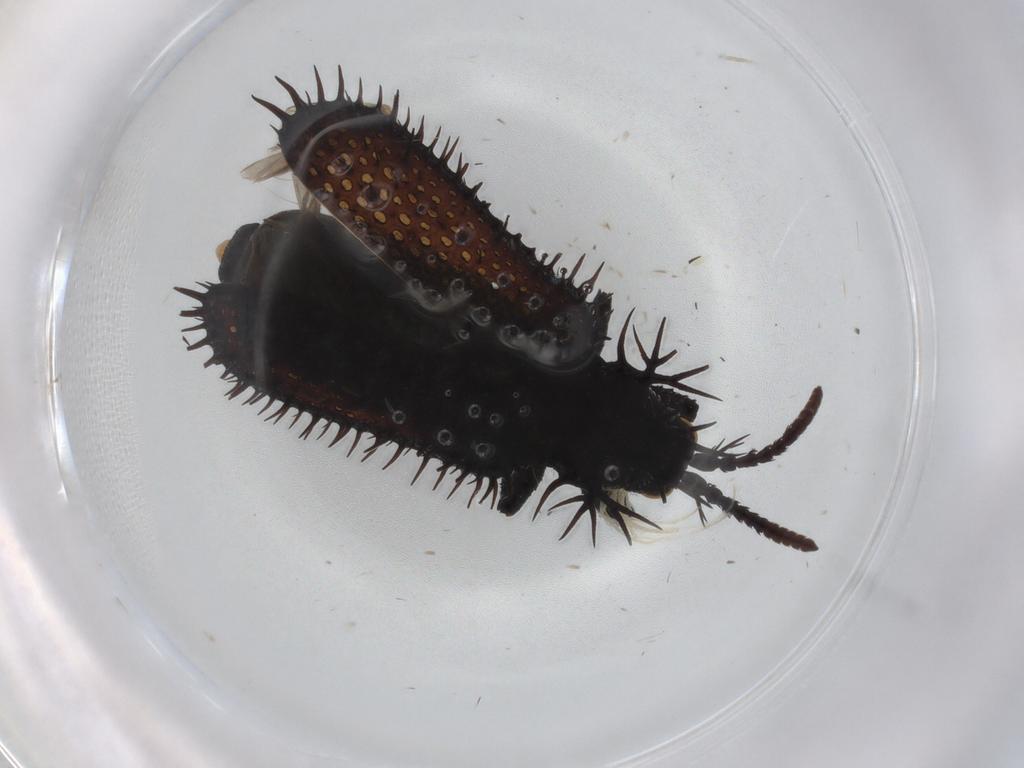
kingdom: Animalia
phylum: Arthropoda
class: Insecta
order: Coleoptera
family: Chrysomelidae
